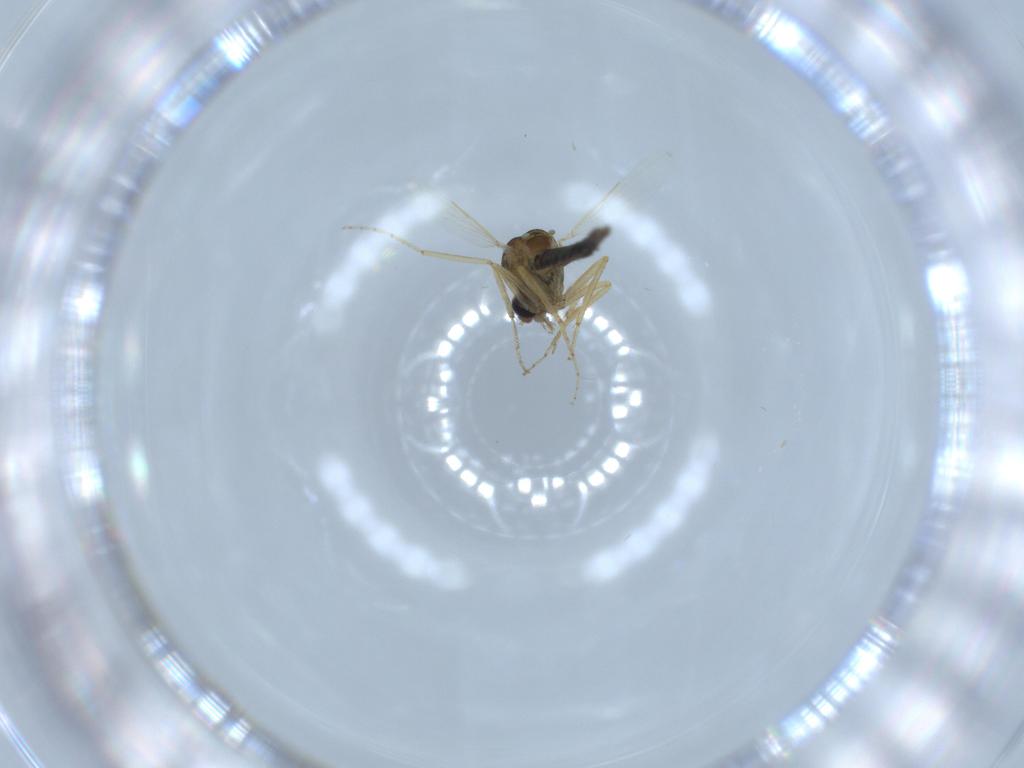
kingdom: Animalia
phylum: Arthropoda
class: Insecta
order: Diptera
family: Ceratopogonidae
